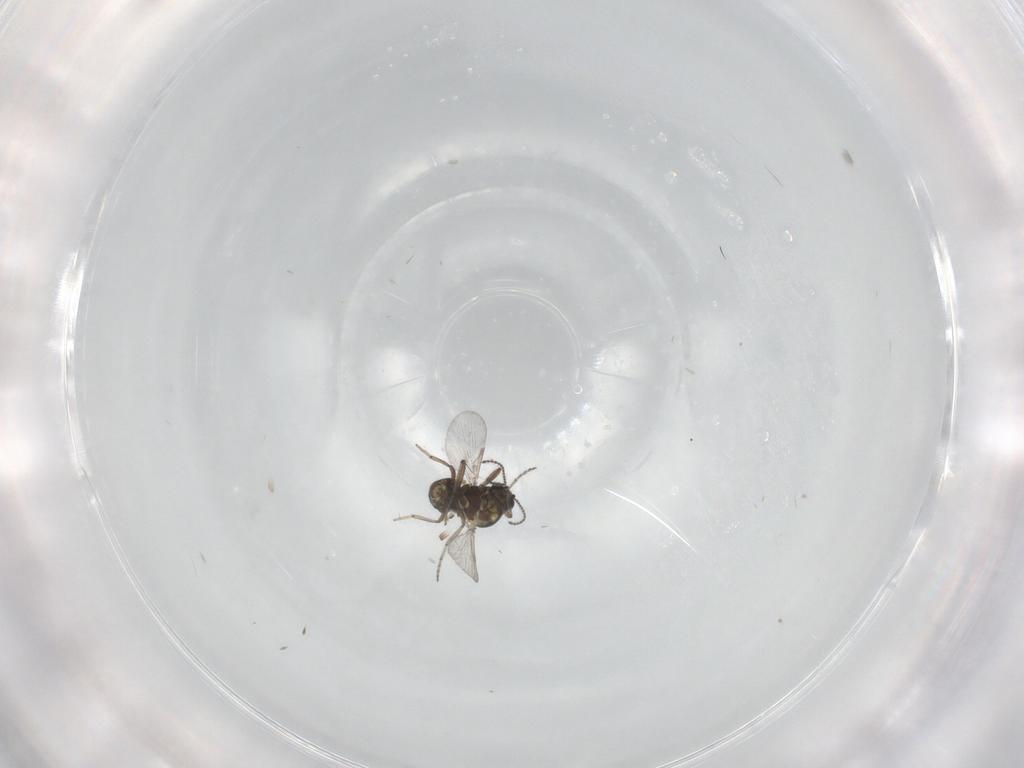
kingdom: Animalia
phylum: Arthropoda
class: Insecta
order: Diptera
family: Ceratopogonidae
